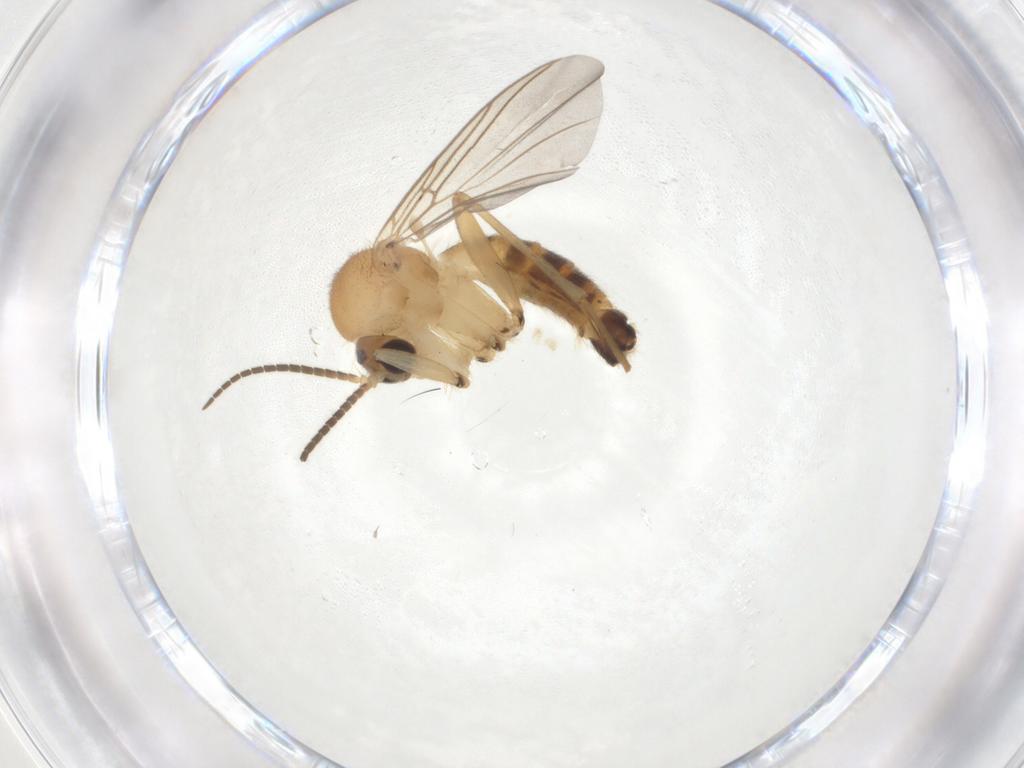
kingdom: Animalia
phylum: Arthropoda
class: Insecta
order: Diptera
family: Mycetophilidae
